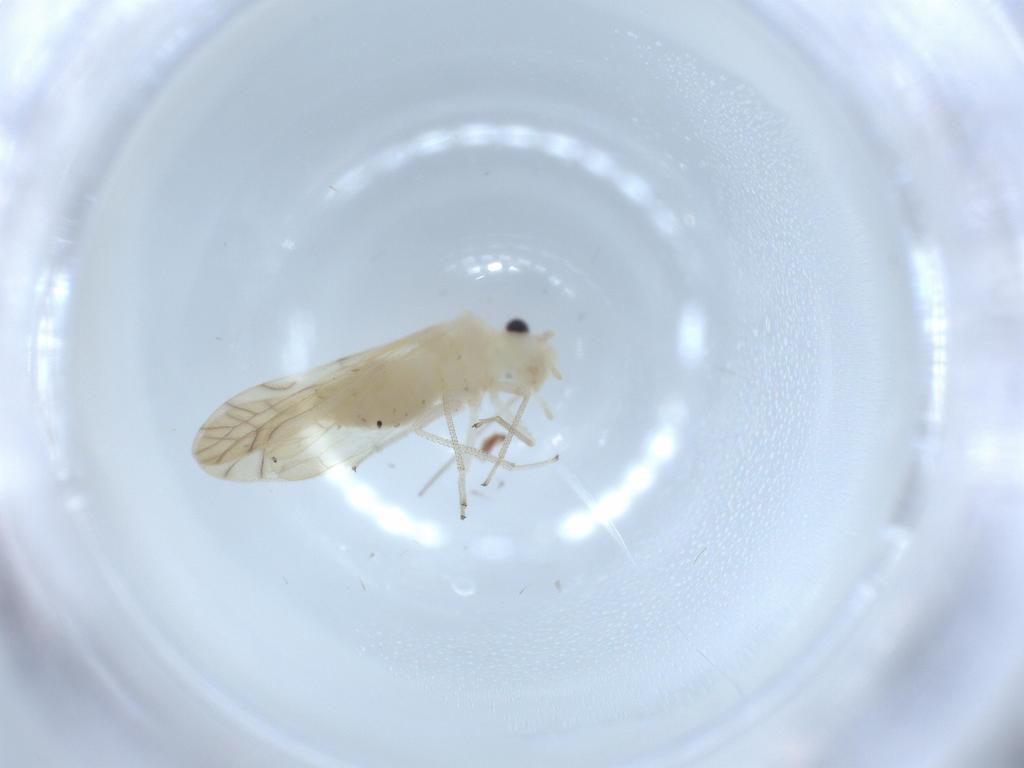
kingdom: Animalia
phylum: Arthropoda
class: Insecta
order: Psocodea
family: Caeciliusidae
